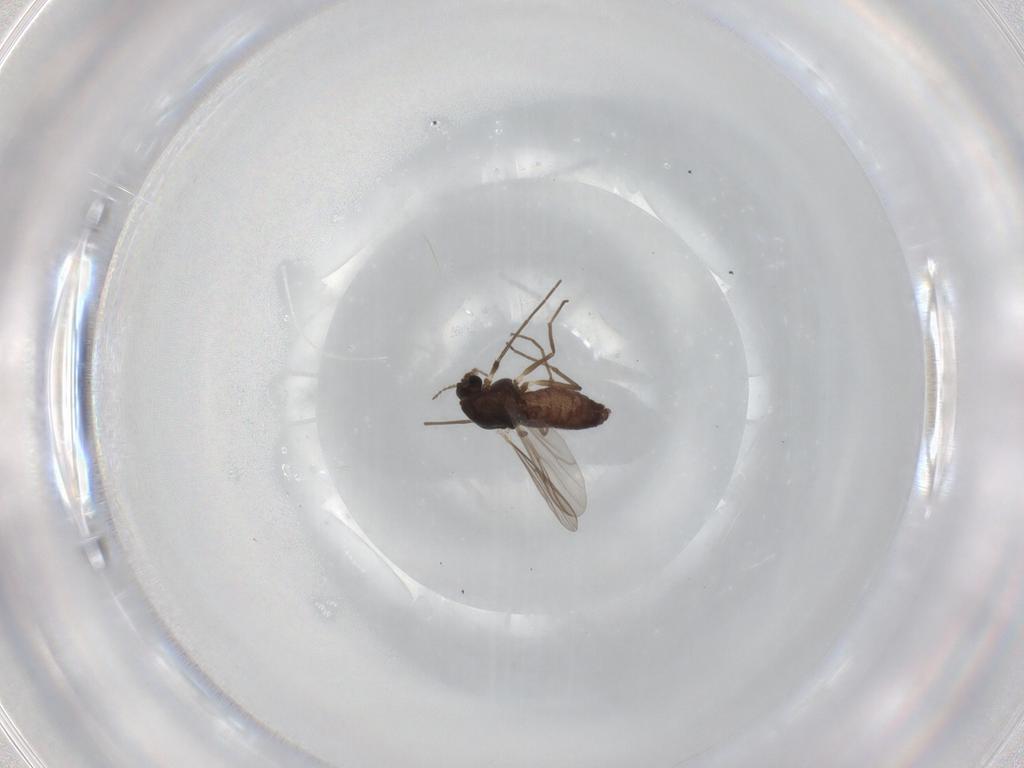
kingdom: Animalia
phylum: Arthropoda
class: Insecta
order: Diptera
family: Chironomidae
